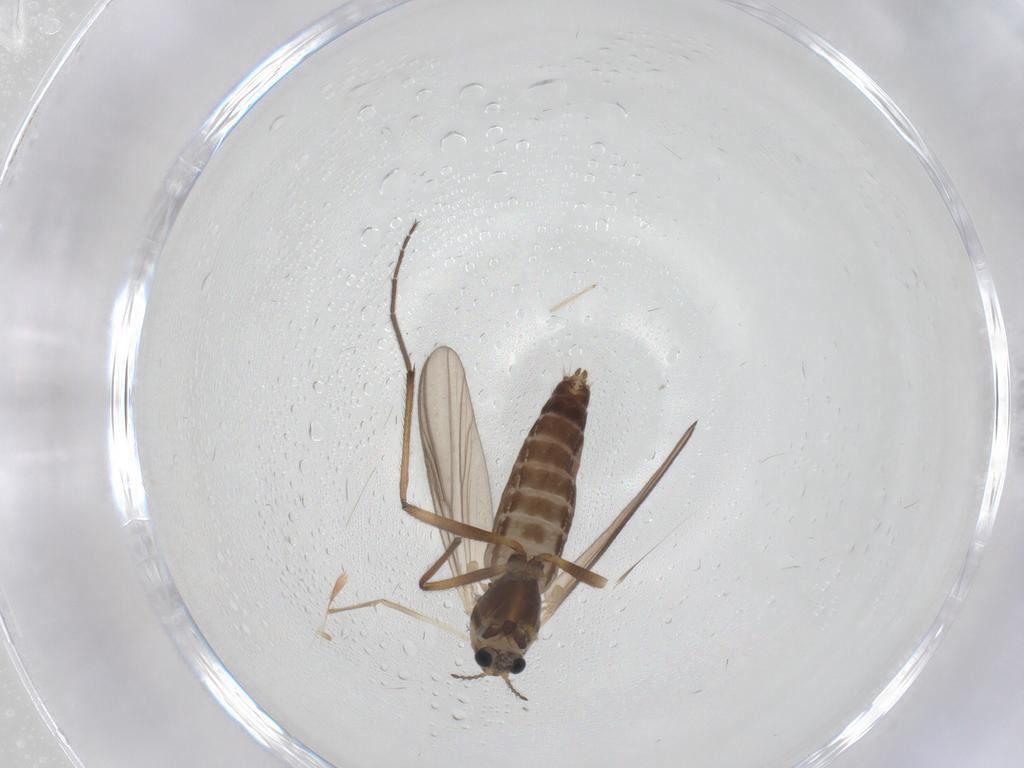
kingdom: Animalia
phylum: Arthropoda
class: Insecta
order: Diptera
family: Chironomidae
